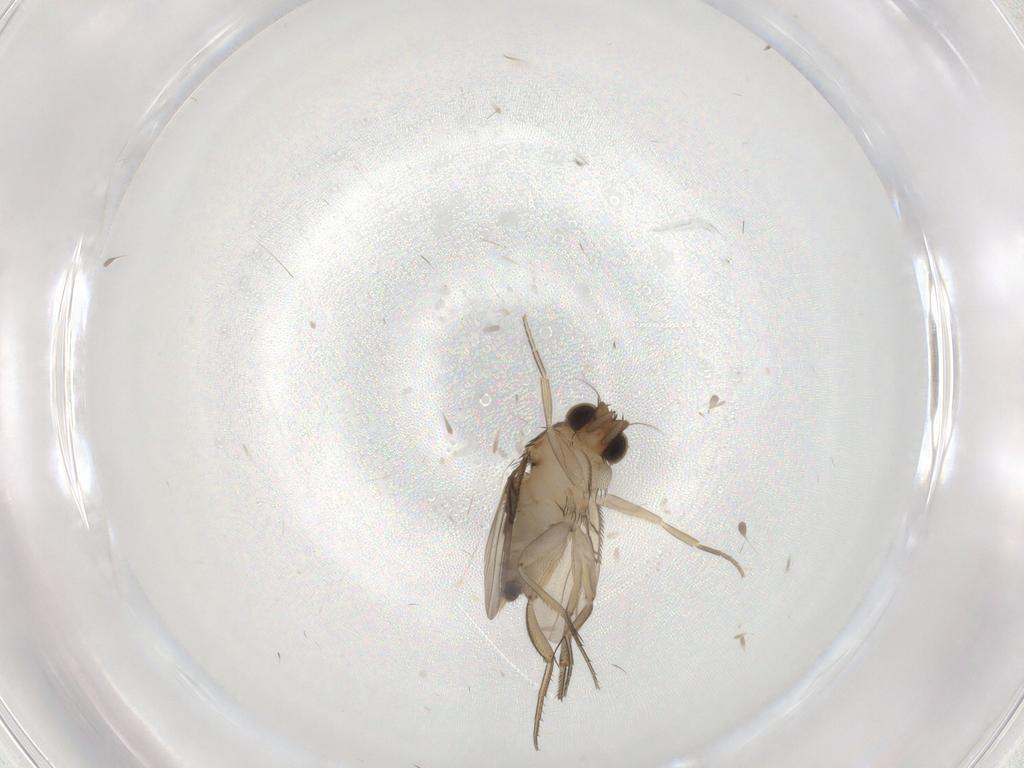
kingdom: Animalia
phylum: Arthropoda
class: Insecta
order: Diptera
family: Phoridae
